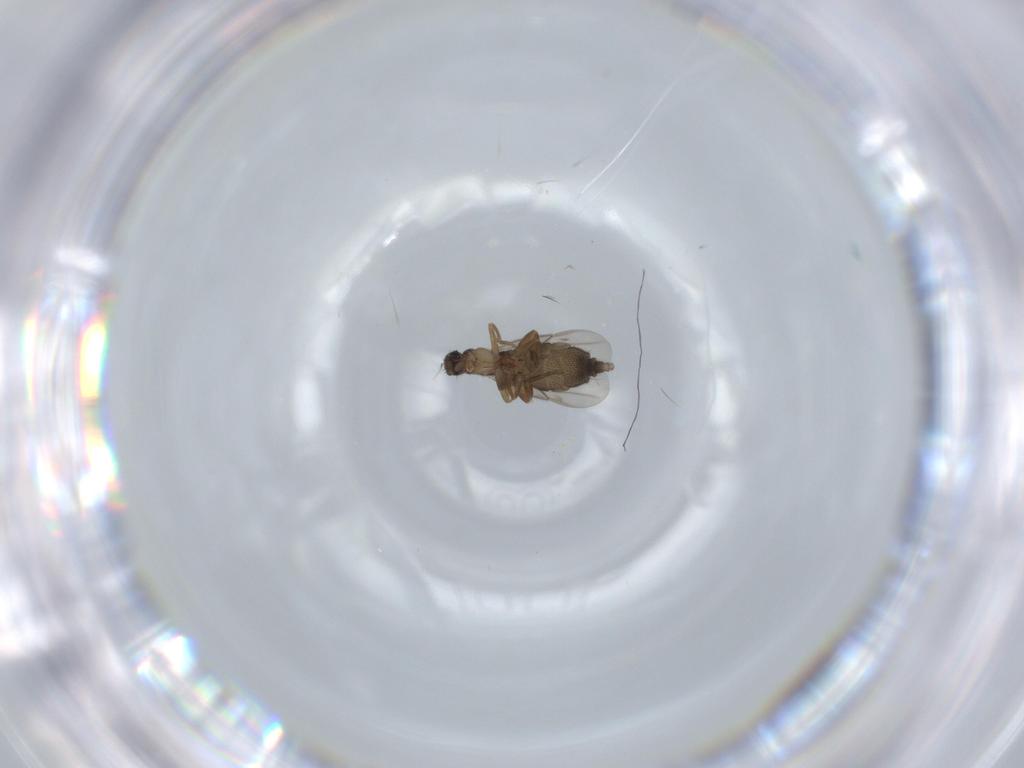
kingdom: Animalia
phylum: Arthropoda
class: Insecta
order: Diptera
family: Phoridae
